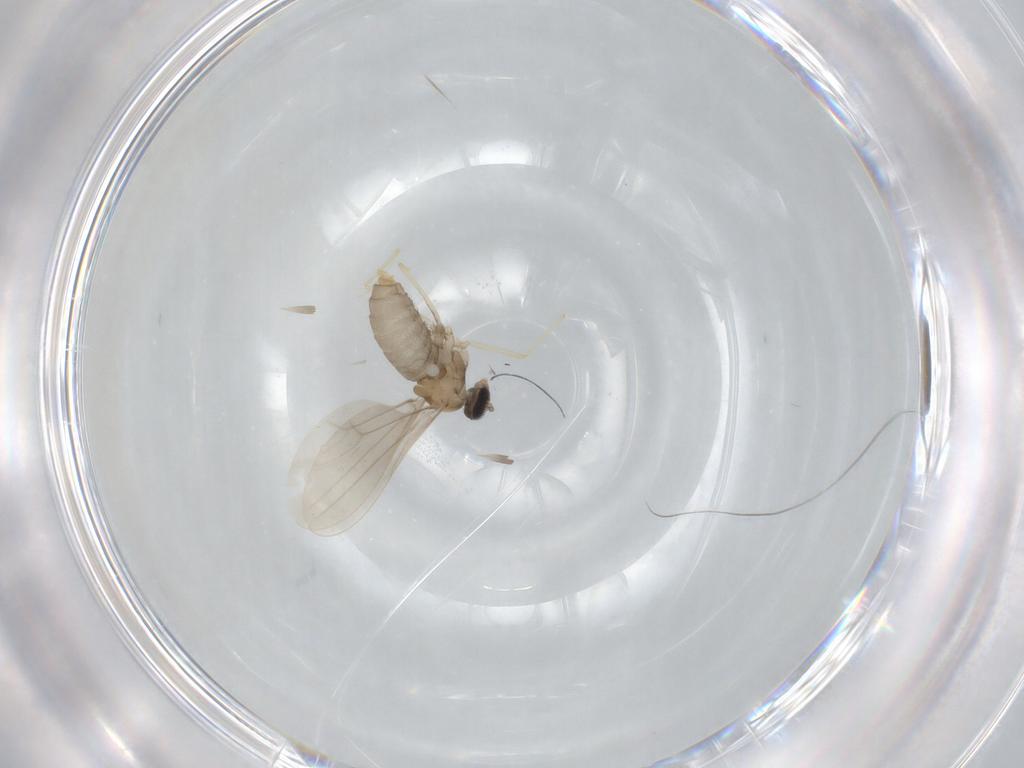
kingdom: Animalia
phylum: Arthropoda
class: Insecta
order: Diptera
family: Cecidomyiidae
